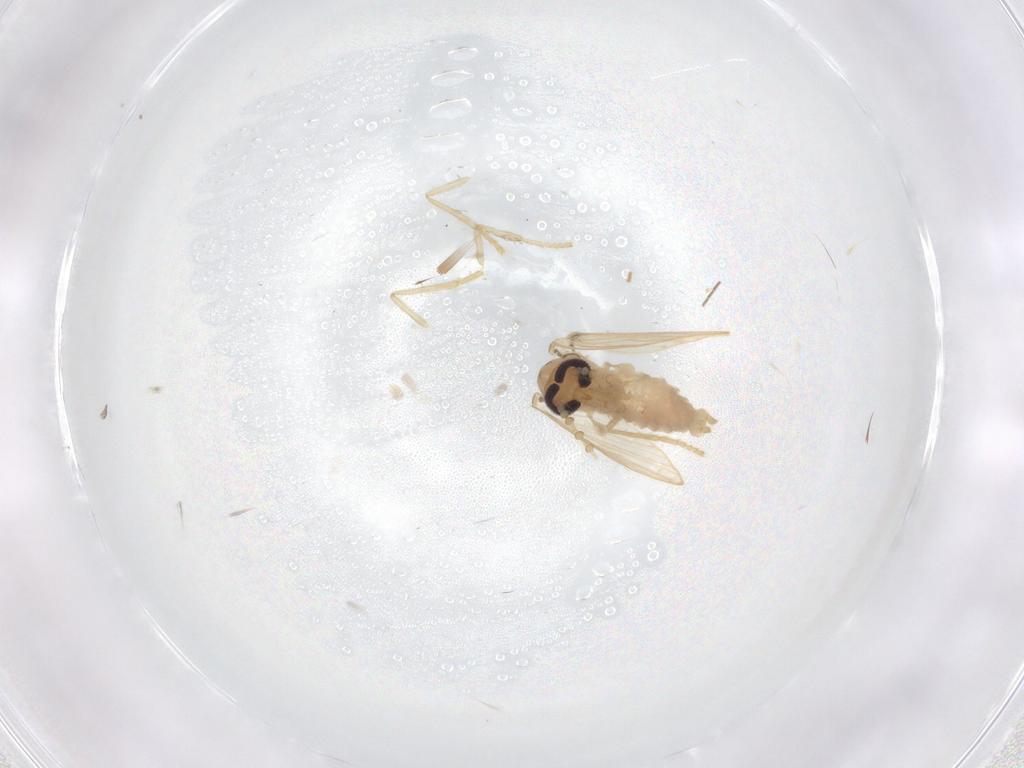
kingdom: Animalia
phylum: Arthropoda
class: Insecta
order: Diptera
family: Psychodidae
